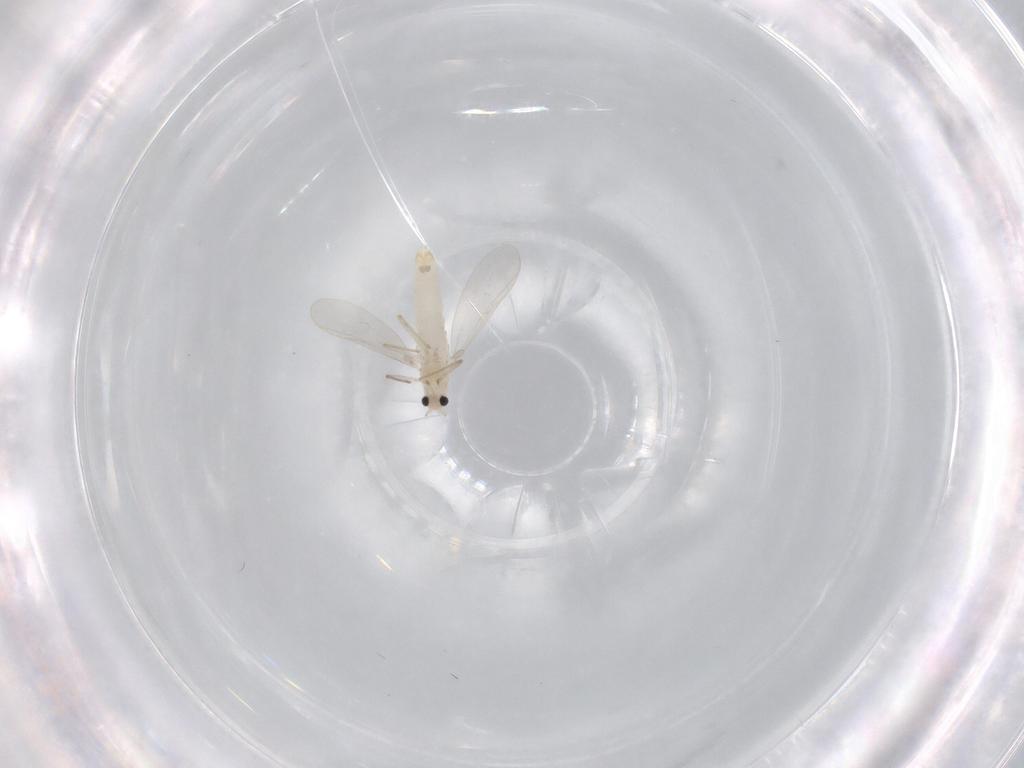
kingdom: Animalia
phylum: Arthropoda
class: Insecta
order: Diptera
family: Chironomidae
